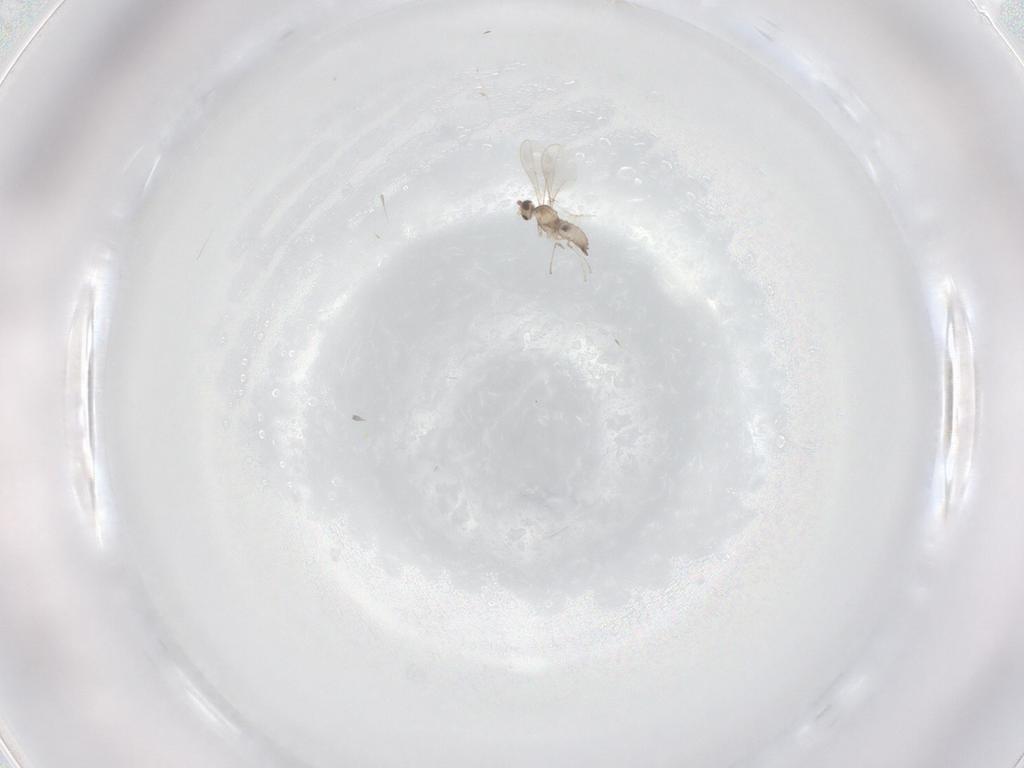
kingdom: Animalia
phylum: Arthropoda
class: Insecta
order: Diptera
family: Cecidomyiidae
